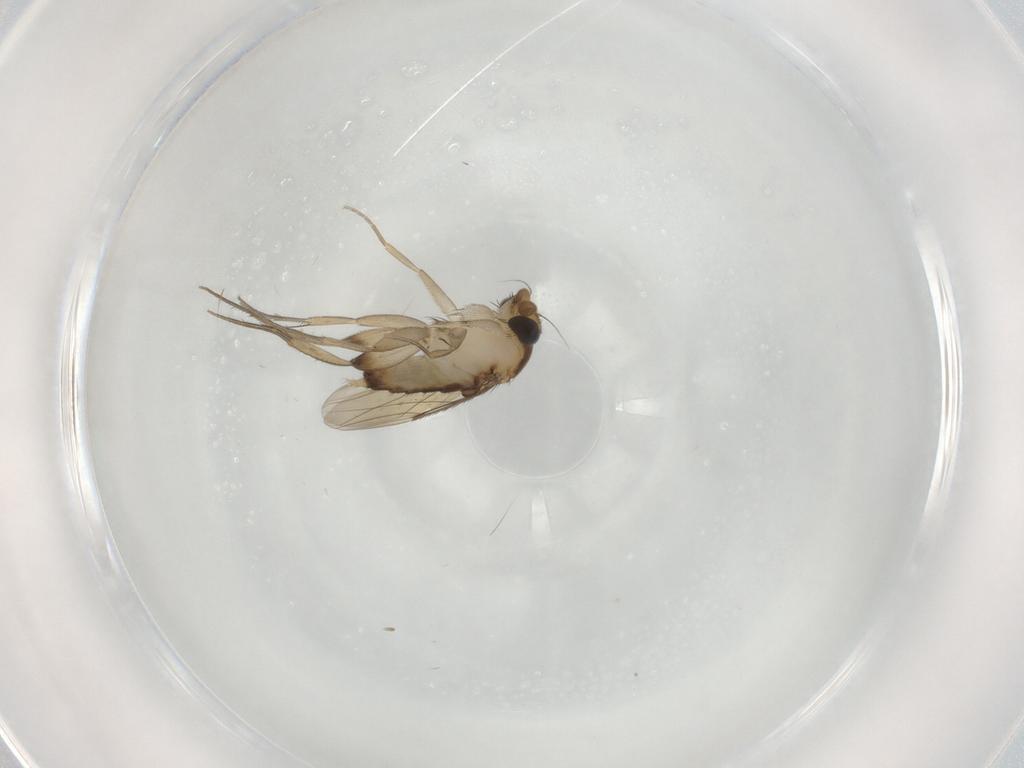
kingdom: Animalia
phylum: Arthropoda
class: Insecta
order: Diptera
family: Phoridae
